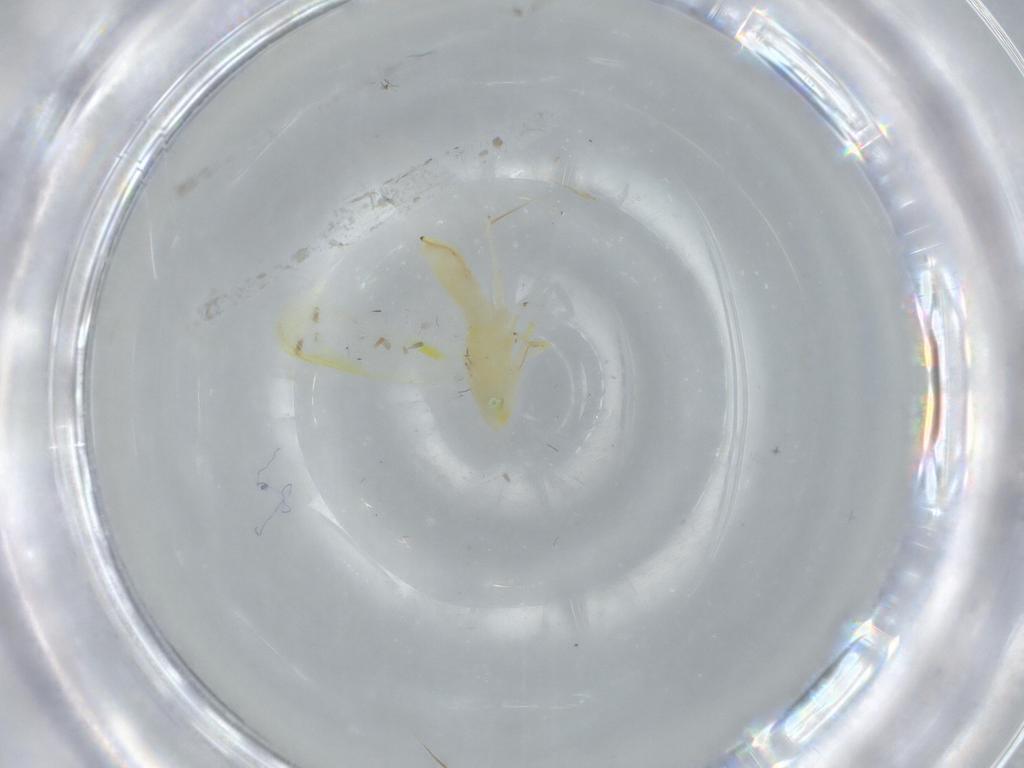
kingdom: Animalia
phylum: Arthropoda
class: Insecta
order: Hemiptera
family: Cicadellidae
